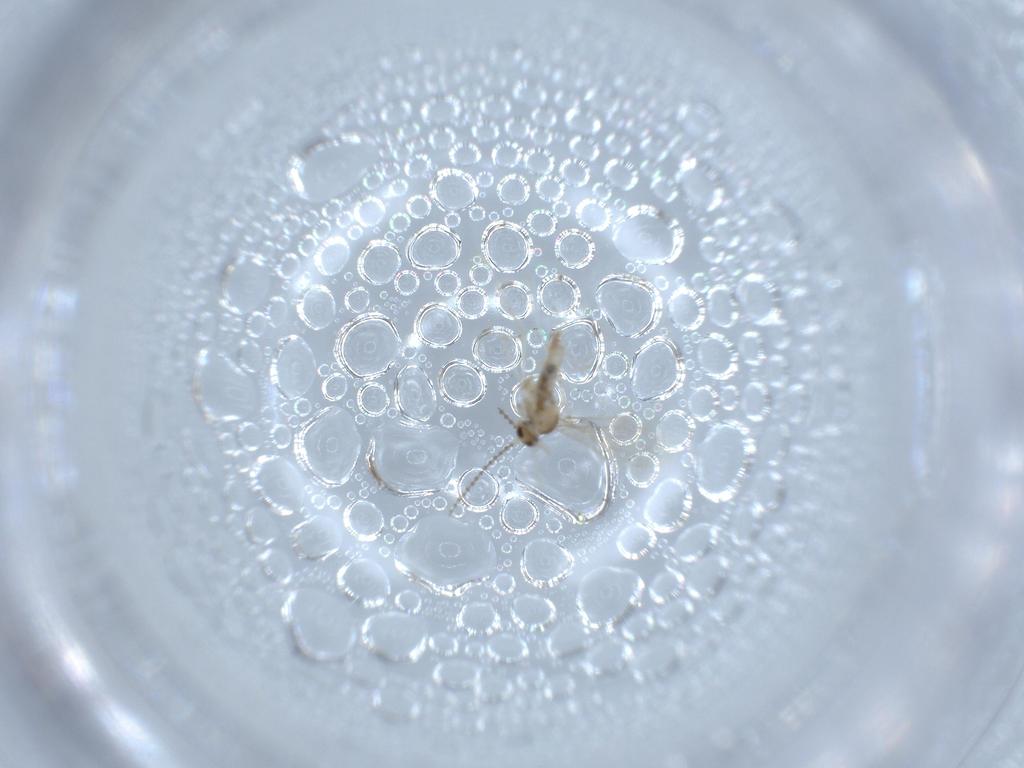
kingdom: Animalia
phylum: Arthropoda
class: Insecta
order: Diptera
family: Cecidomyiidae
